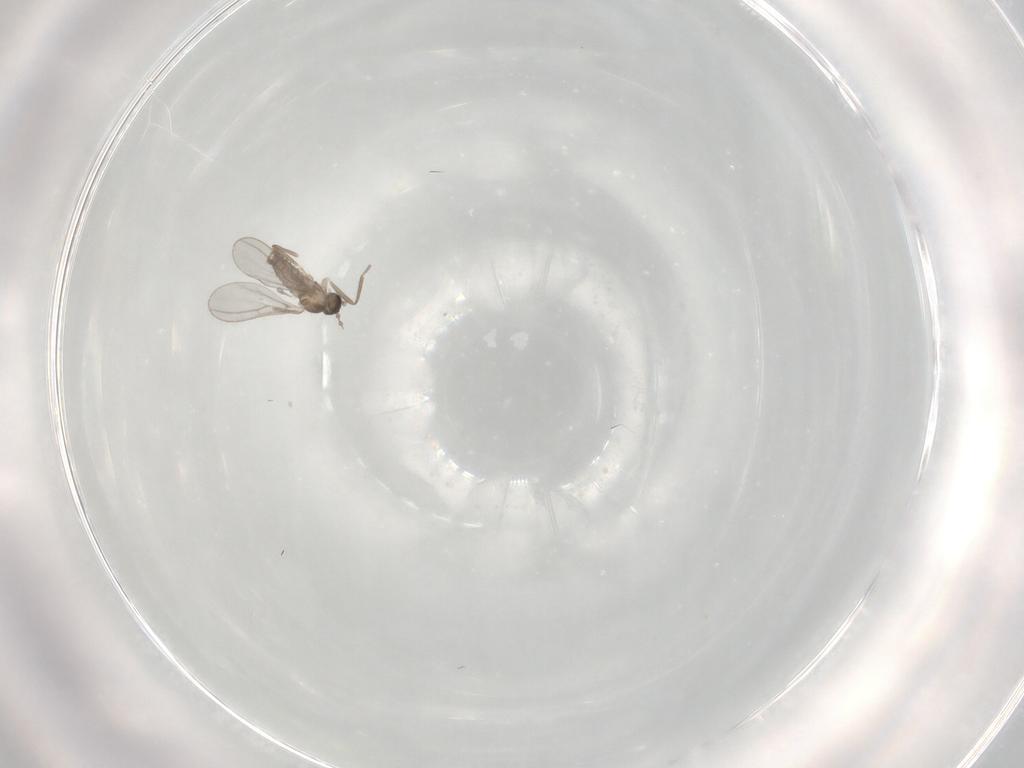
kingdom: Animalia
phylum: Arthropoda
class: Insecta
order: Diptera
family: Cecidomyiidae
